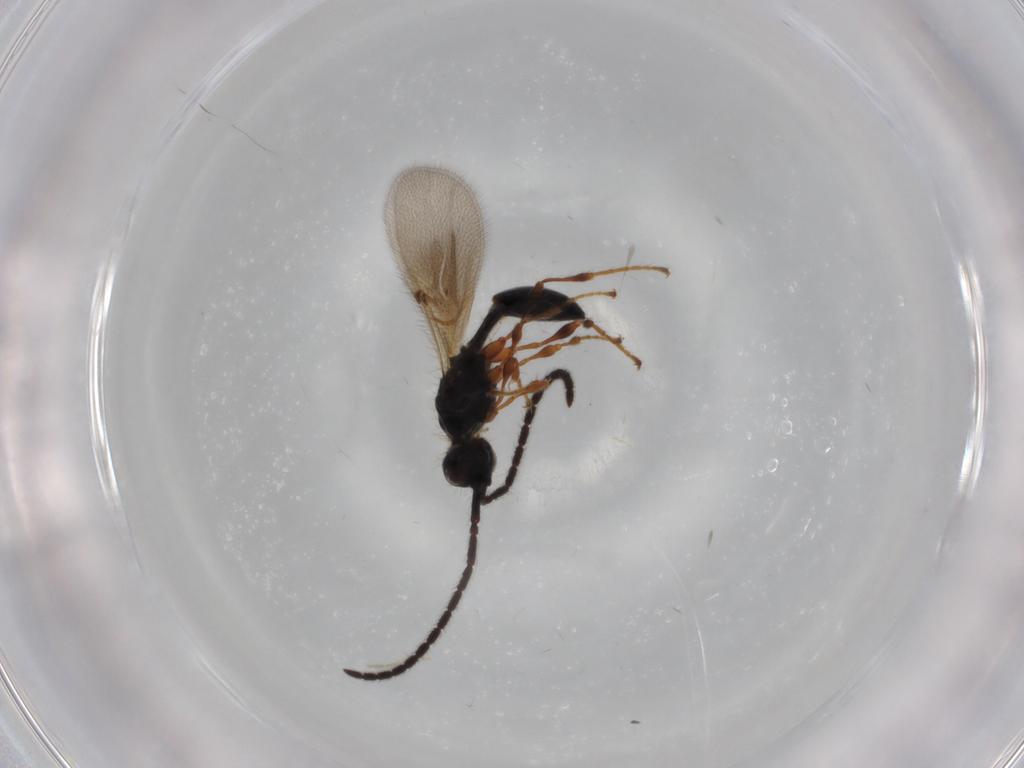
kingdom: Animalia
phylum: Arthropoda
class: Insecta
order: Hymenoptera
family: Diapriidae
